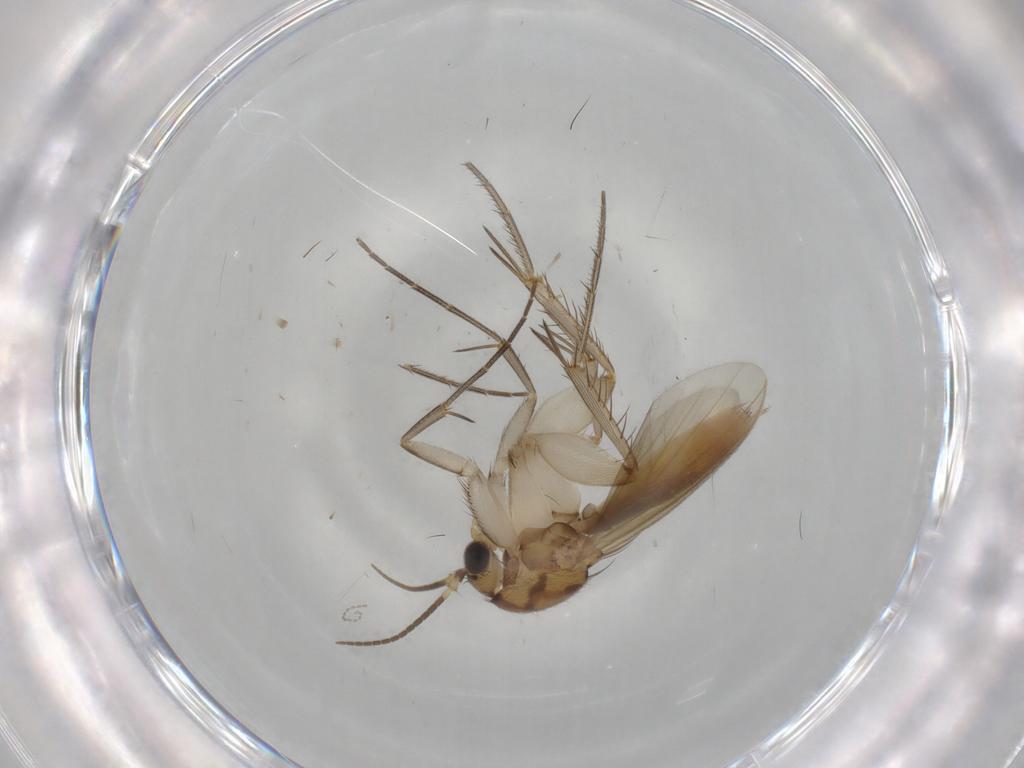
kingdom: Animalia
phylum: Arthropoda
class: Insecta
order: Diptera
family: Mycetophilidae
